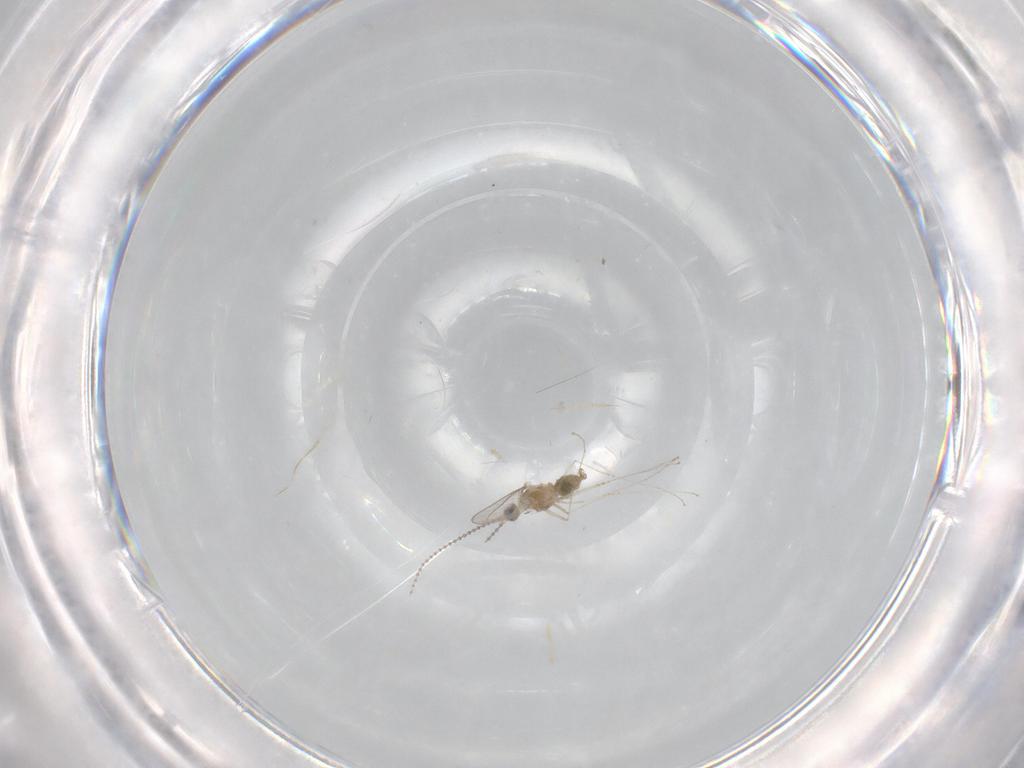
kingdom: Animalia
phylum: Arthropoda
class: Insecta
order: Diptera
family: Cecidomyiidae
